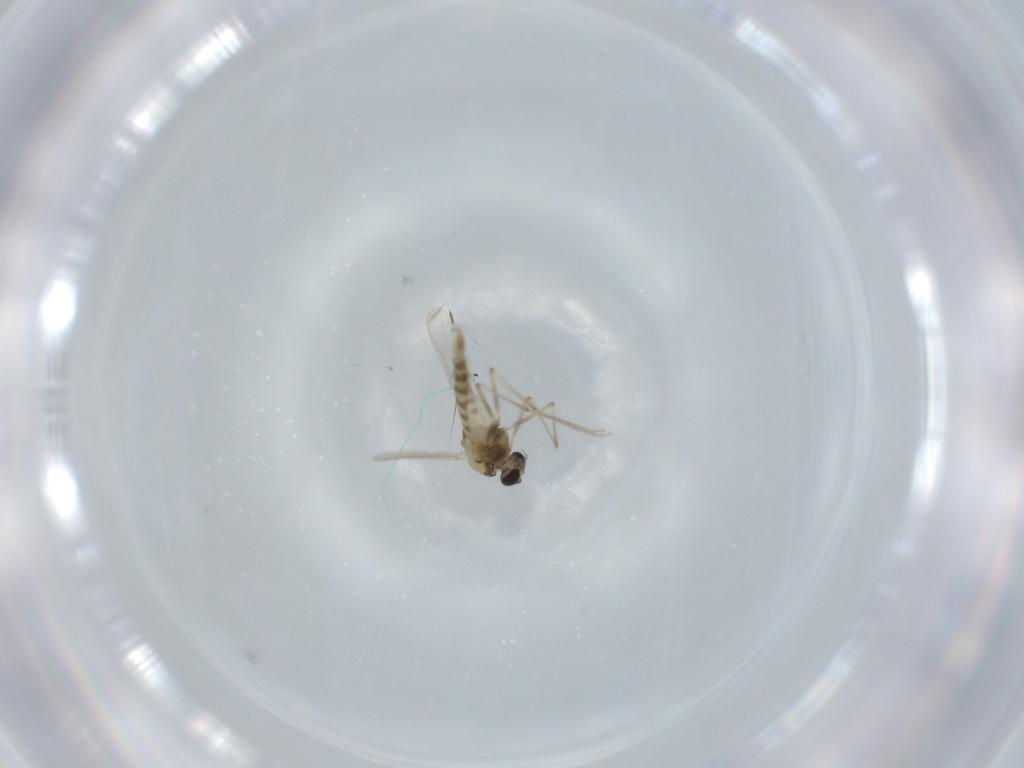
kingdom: Animalia
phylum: Arthropoda
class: Insecta
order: Diptera
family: Chironomidae
